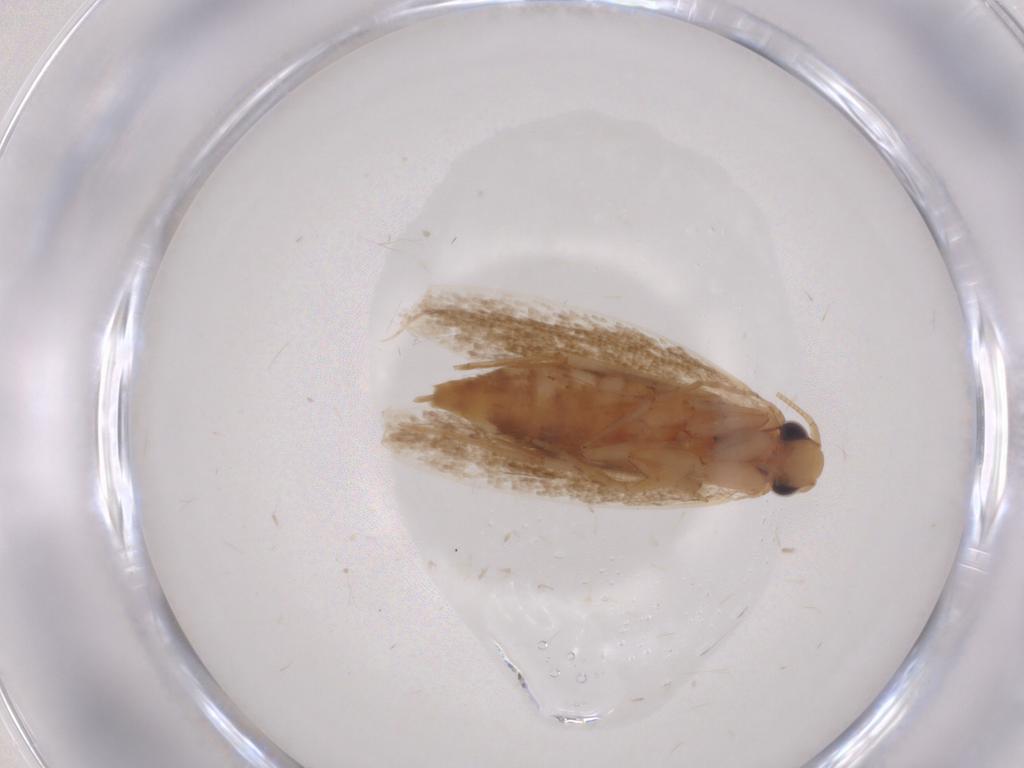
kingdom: Animalia
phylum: Arthropoda
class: Insecta
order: Lepidoptera
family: Tineidae
